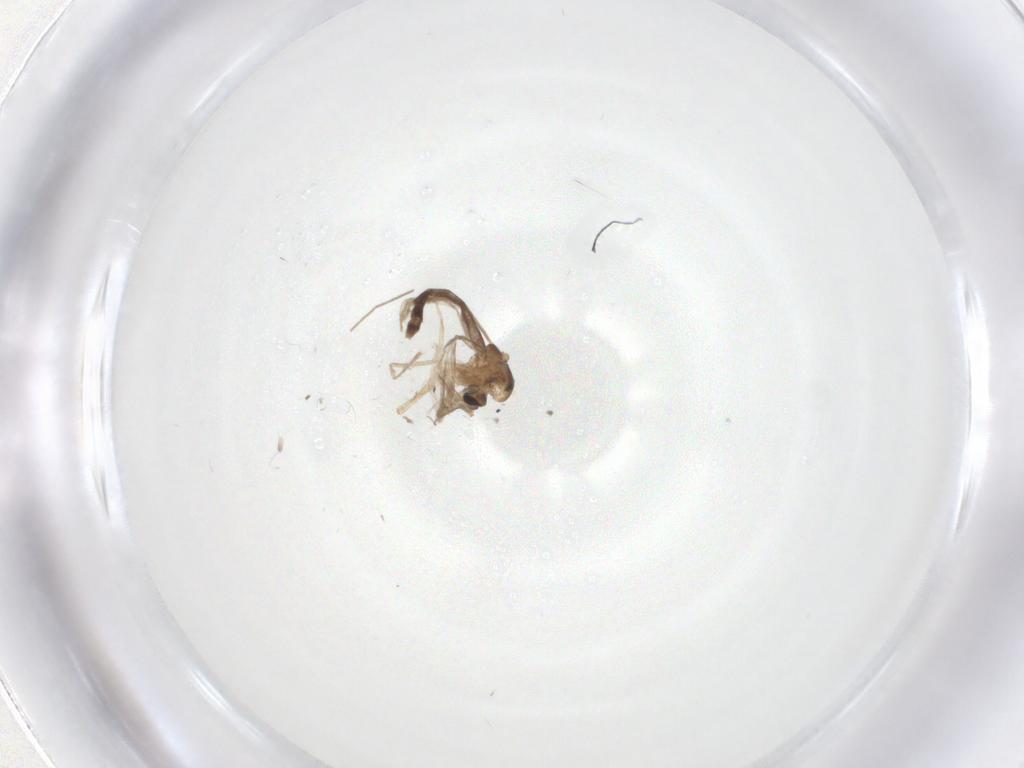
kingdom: Animalia
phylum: Arthropoda
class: Insecta
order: Diptera
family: Chironomidae
